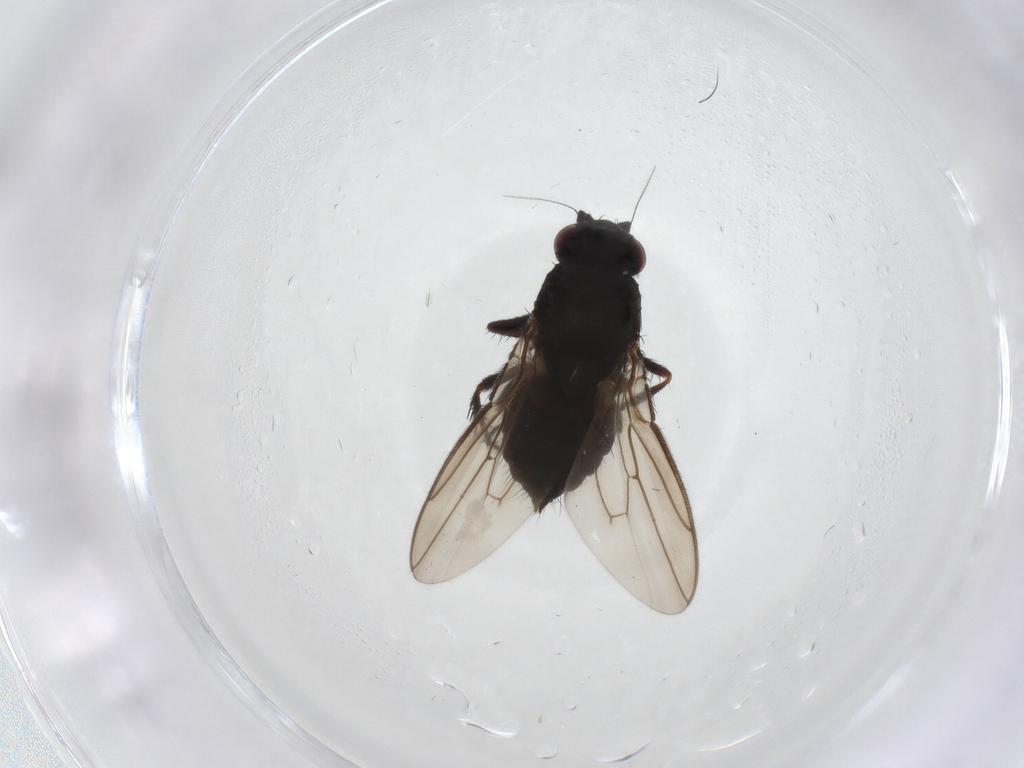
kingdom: Animalia
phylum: Arthropoda
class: Insecta
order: Diptera
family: Sphaeroceridae
